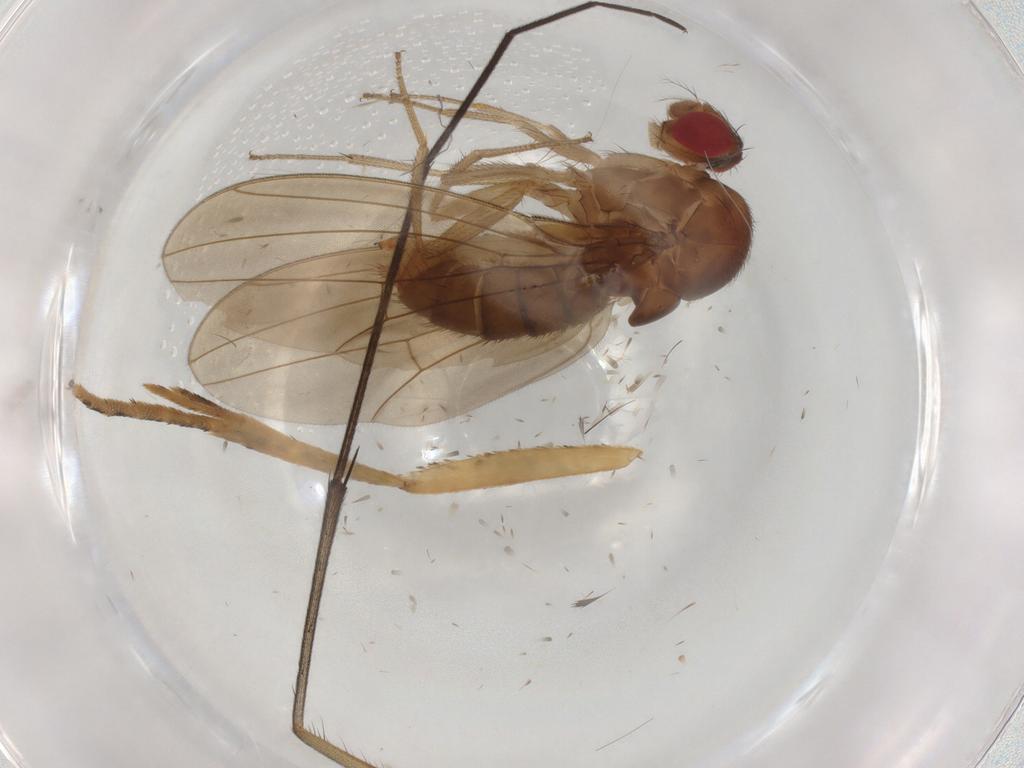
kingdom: Animalia
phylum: Arthropoda
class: Insecta
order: Diptera
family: Drosophilidae
